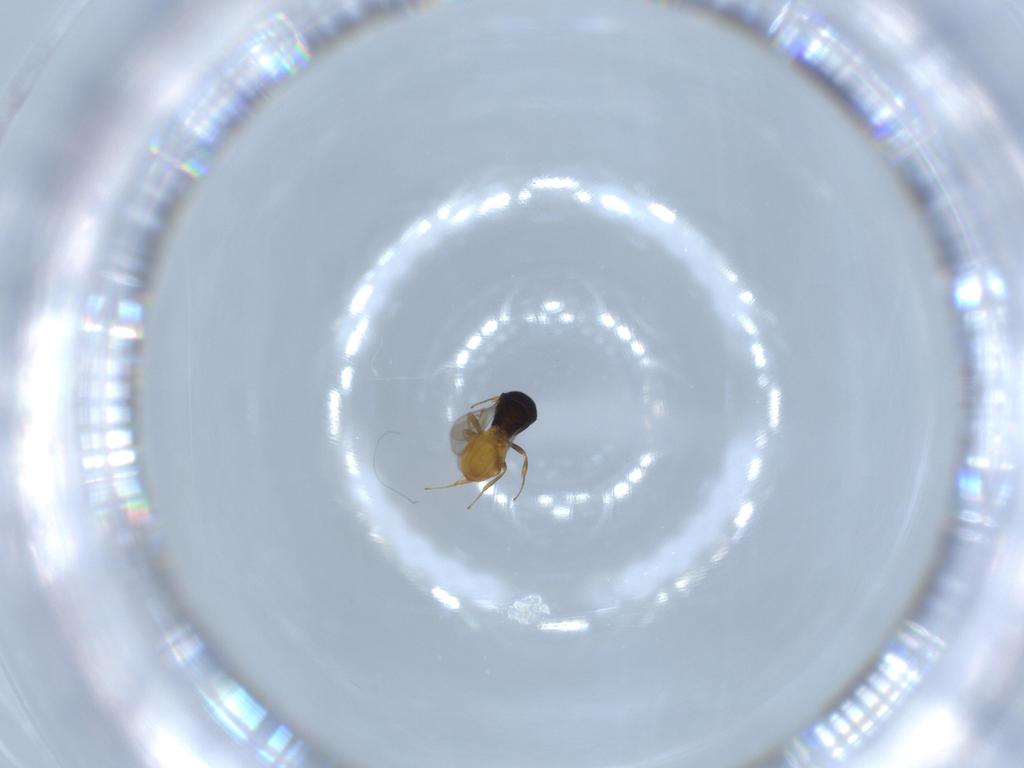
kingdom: Animalia
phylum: Arthropoda
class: Insecta
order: Hymenoptera
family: Scelionidae
